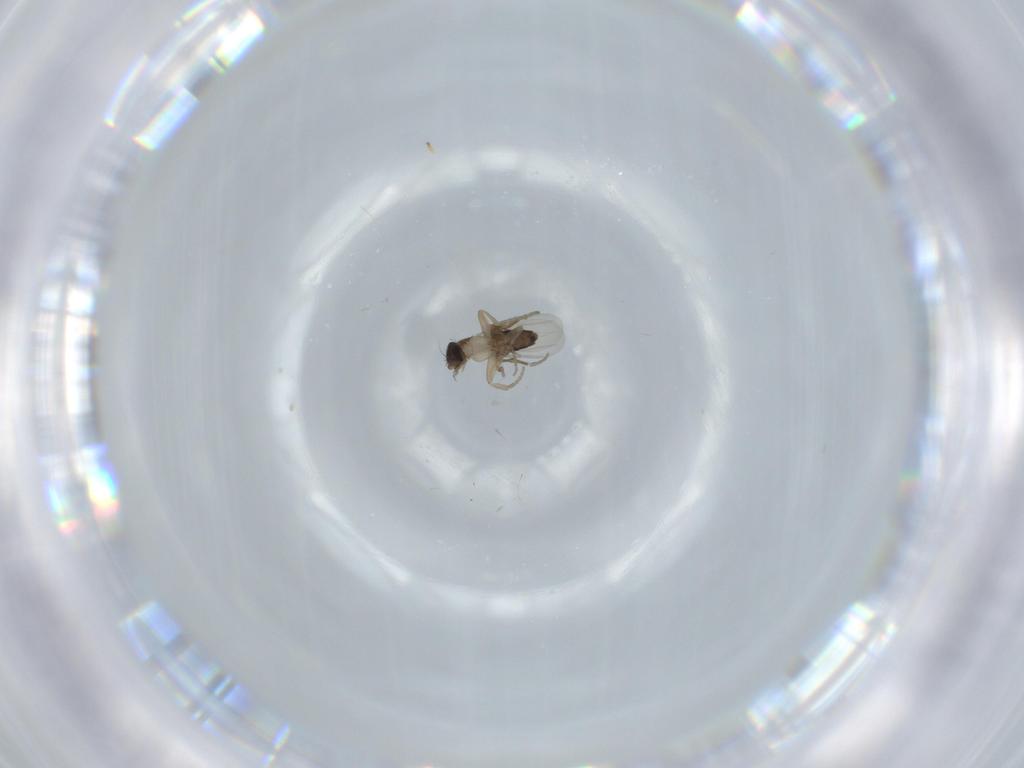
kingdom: Animalia
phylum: Arthropoda
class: Insecta
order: Diptera
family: Phoridae
